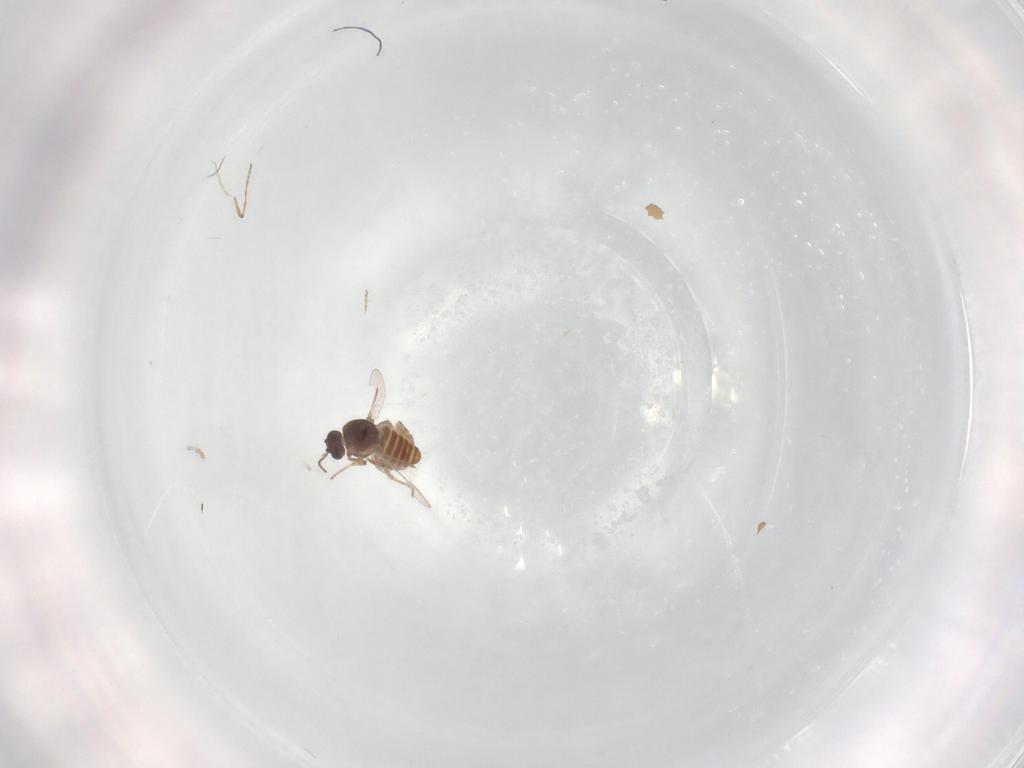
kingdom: Animalia
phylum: Arthropoda
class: Insecta
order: Diptera
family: Ceratopogonidae
